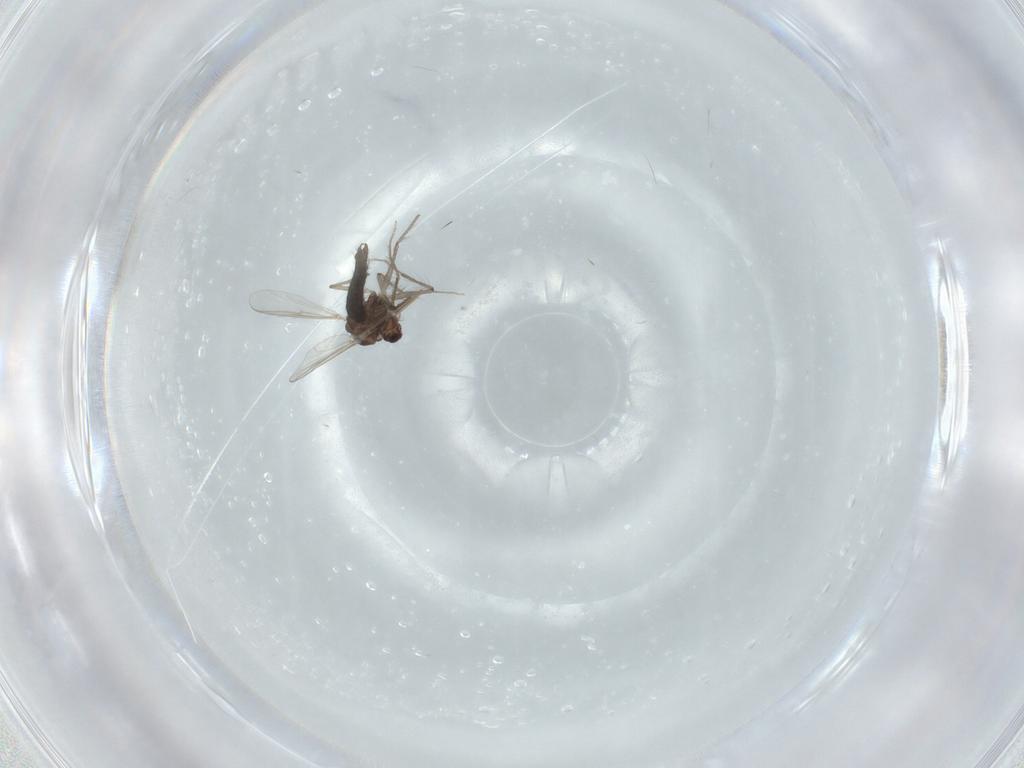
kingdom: Animalia
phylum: Arthropoda
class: Insecta
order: Diptera
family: Chironomidae
